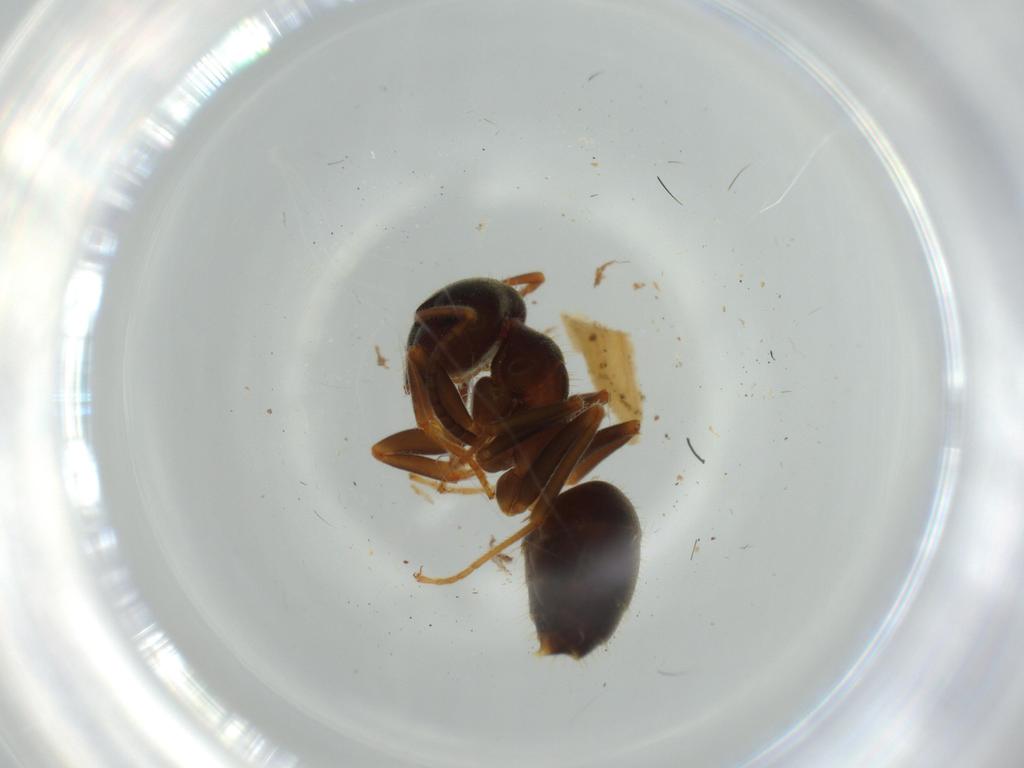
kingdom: Animalia
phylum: Arthropoda
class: Insecta
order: Hymenoptera
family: Formicidae
